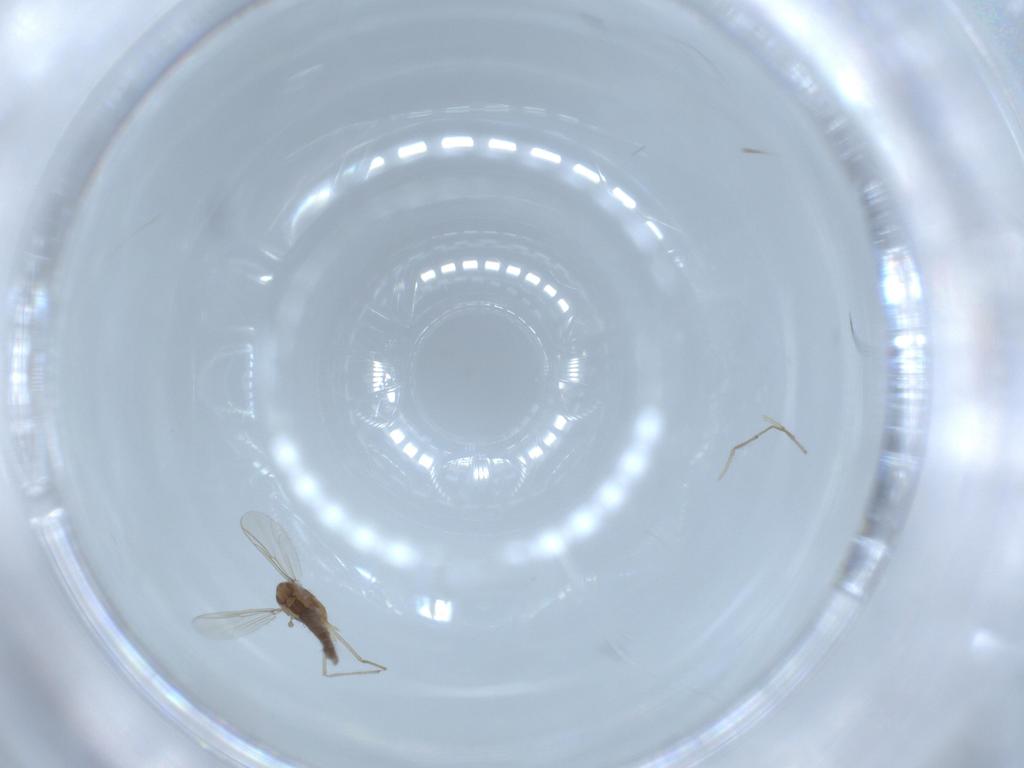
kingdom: Animalia
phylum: Arthropoda
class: Insecta
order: Diptera
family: Chironomidae
